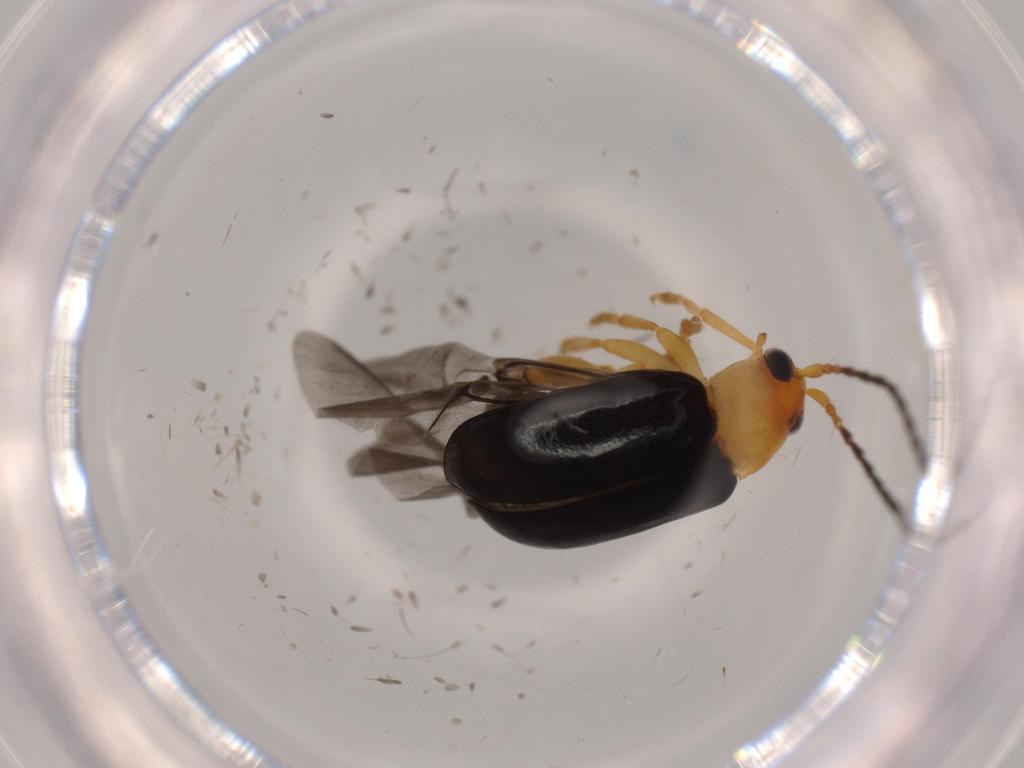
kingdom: Animalia
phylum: Arthropoda
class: Insecta
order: Coleoptera
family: Chrysomelidae
